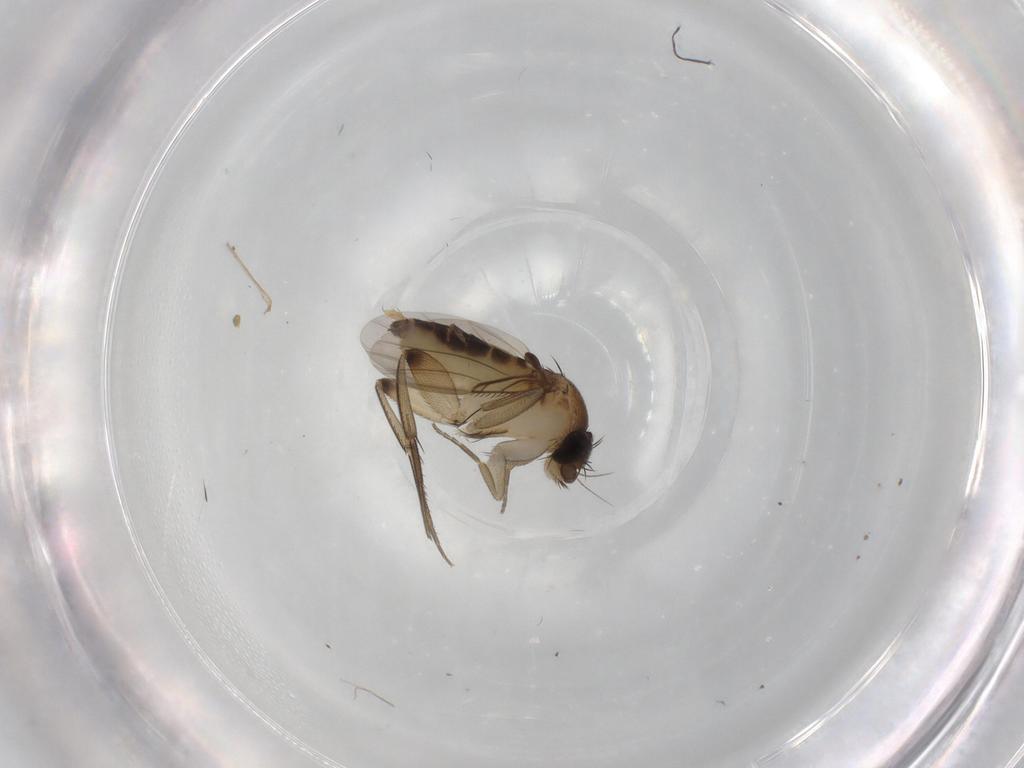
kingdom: Animalia
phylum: Arthropoda
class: Insecta
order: Diptera
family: Phoridae
